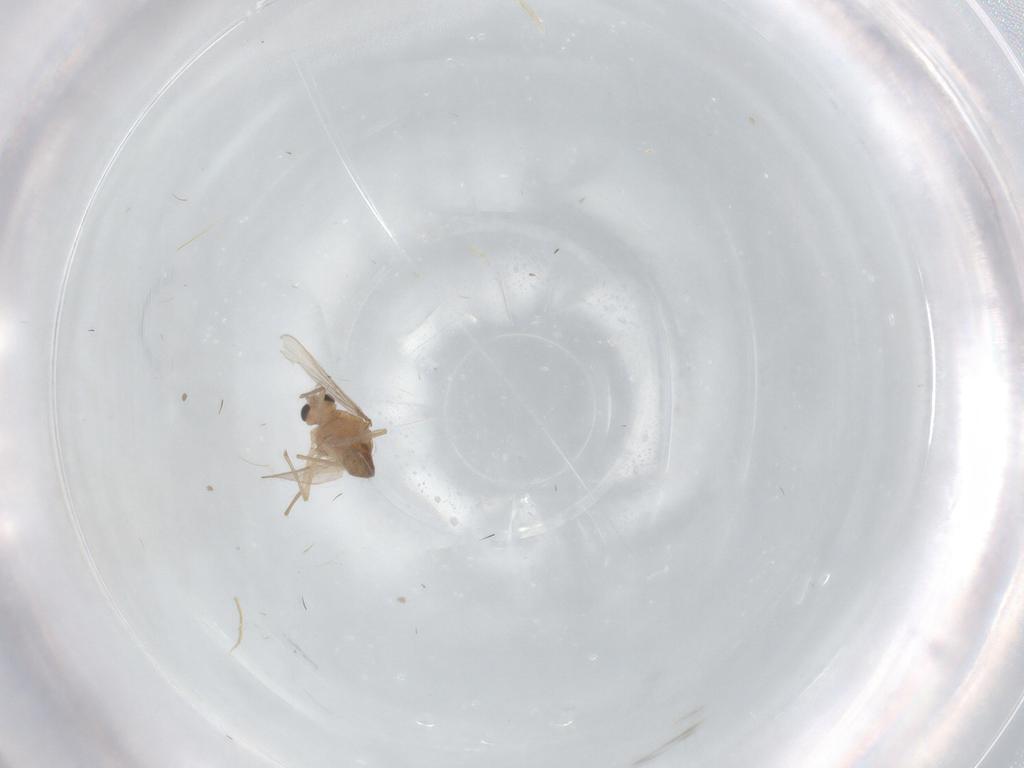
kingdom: Animalia
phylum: Arthropoda
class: Insecta
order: Diptera
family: Chironomidae
